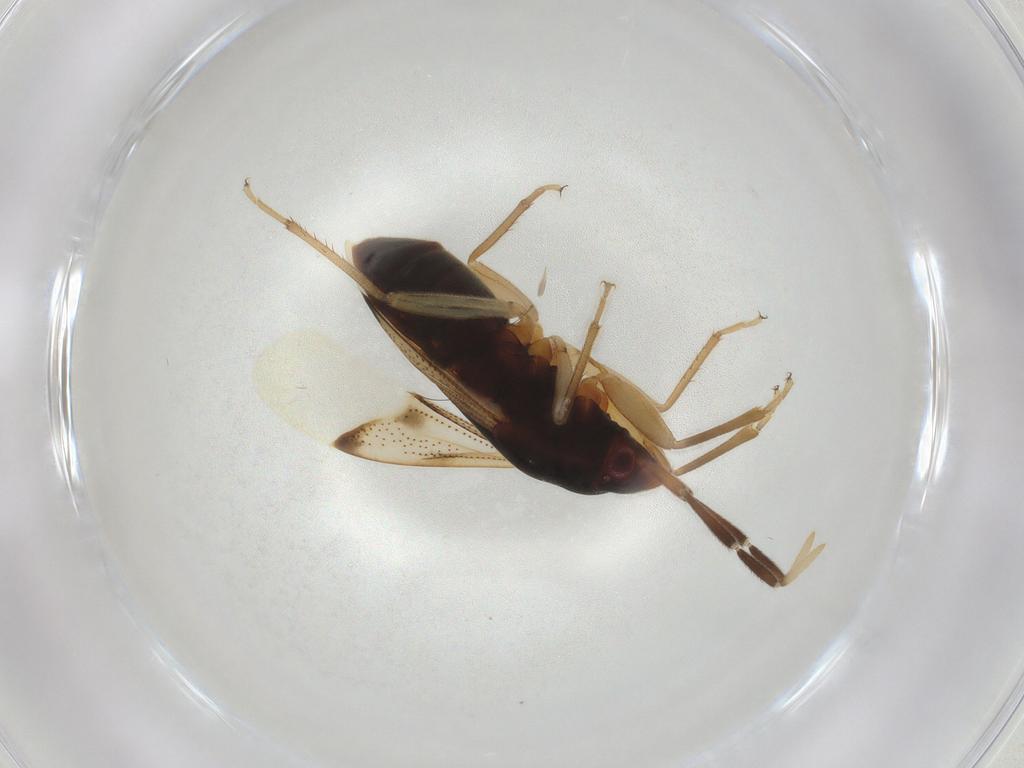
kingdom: Animalia
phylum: Arthropoda
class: Insecta
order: Hemiptera
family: Rhyparochromidae
